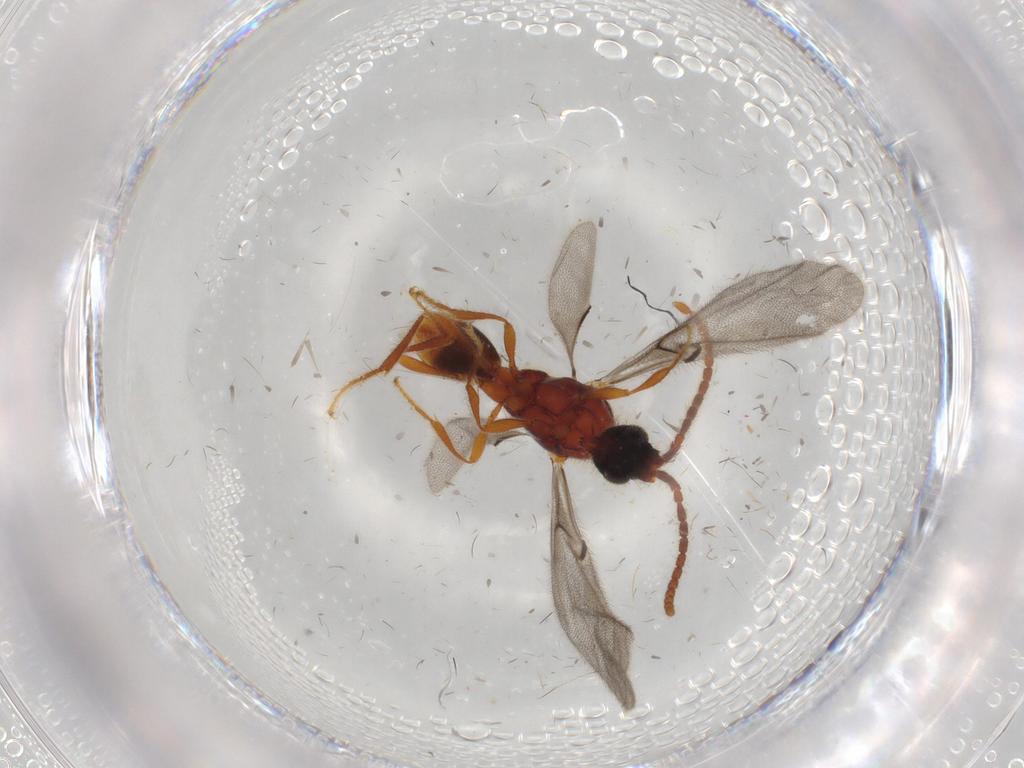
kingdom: Animalia
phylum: Arthropoda
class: Insecta
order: Hymenoptera
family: Diapriidae
